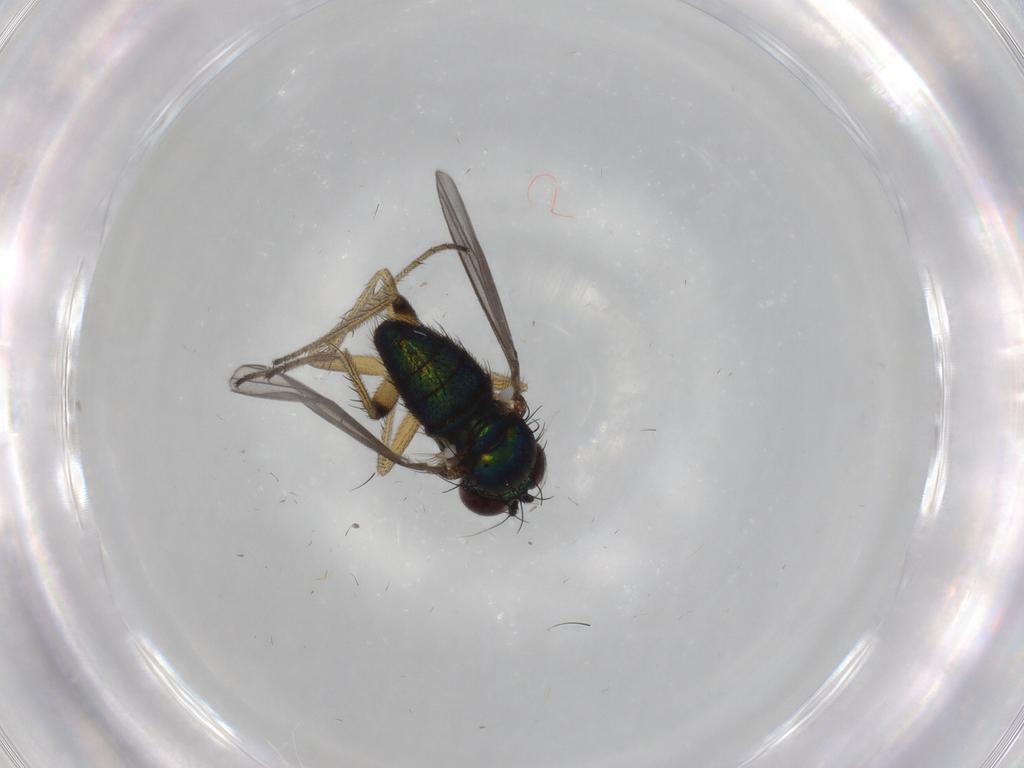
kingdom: Animalia
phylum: Arthropoda
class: Insecta
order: Diptera
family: Dolichopodidae
